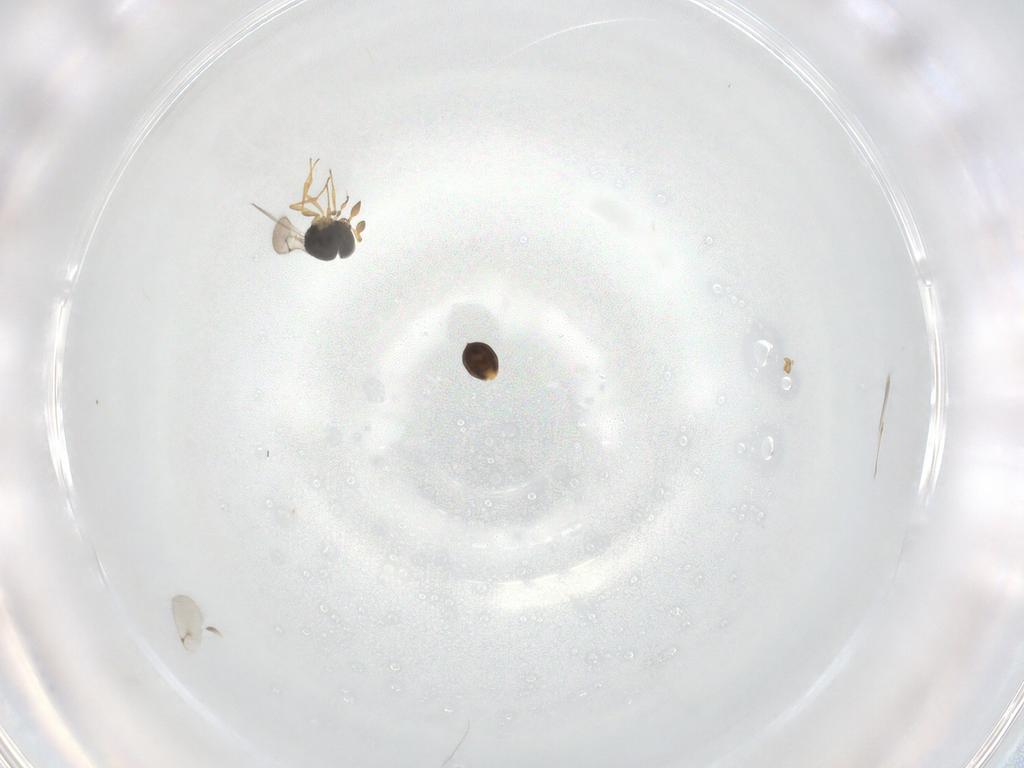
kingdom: Animalia
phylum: Arthropoda
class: Insecta
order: Hymenoptera
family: Scelionidae
